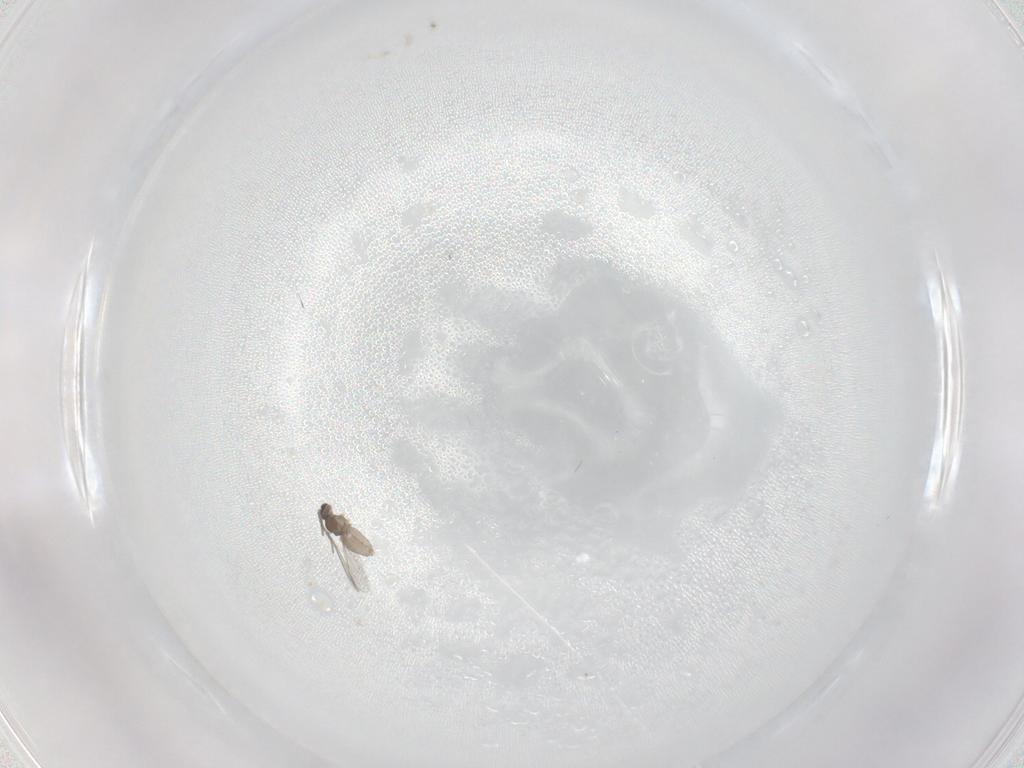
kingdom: Animalia
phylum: Arthropoda
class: Insecta
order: Diptera
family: Cecidomyiidae
